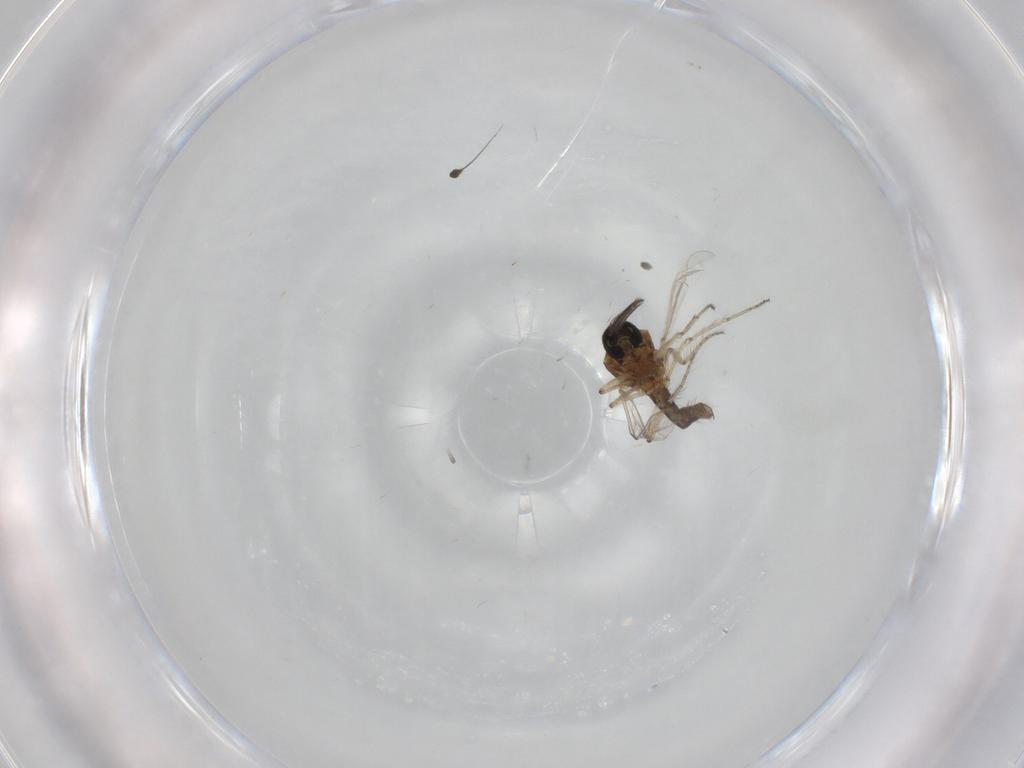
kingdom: Animalia
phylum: Arthropoda
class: Insecta
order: Diptera
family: Ceratopogonidae
